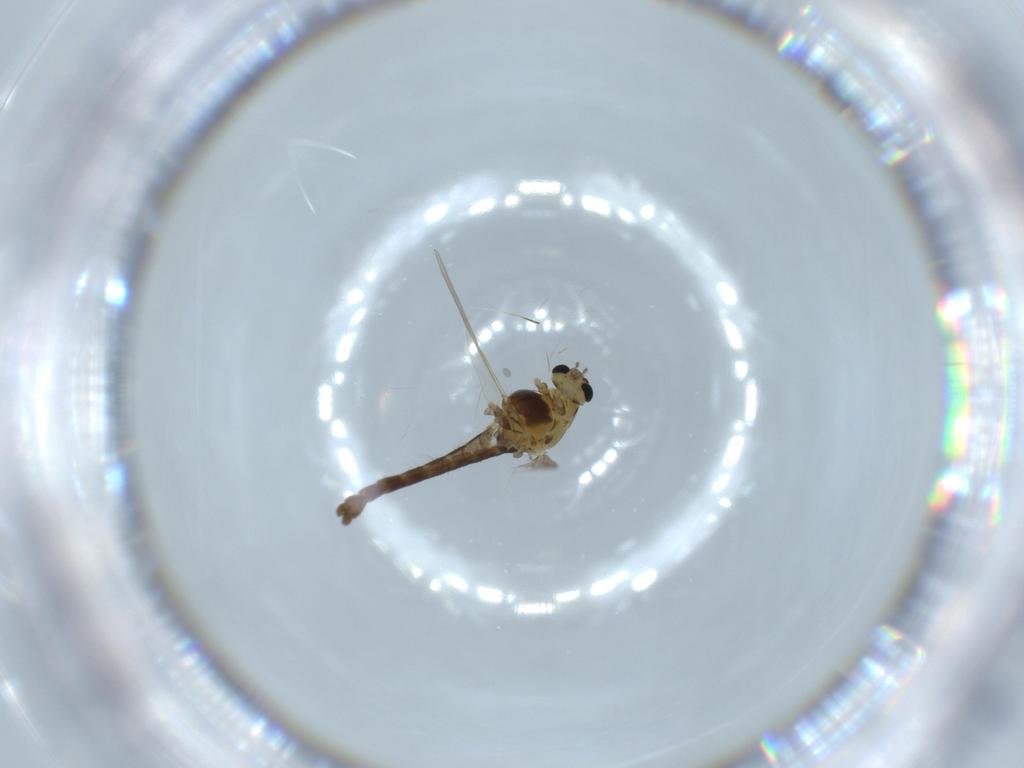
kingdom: Animalia
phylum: Arthropoda
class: Insecta
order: Diptera
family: Chironomidae
